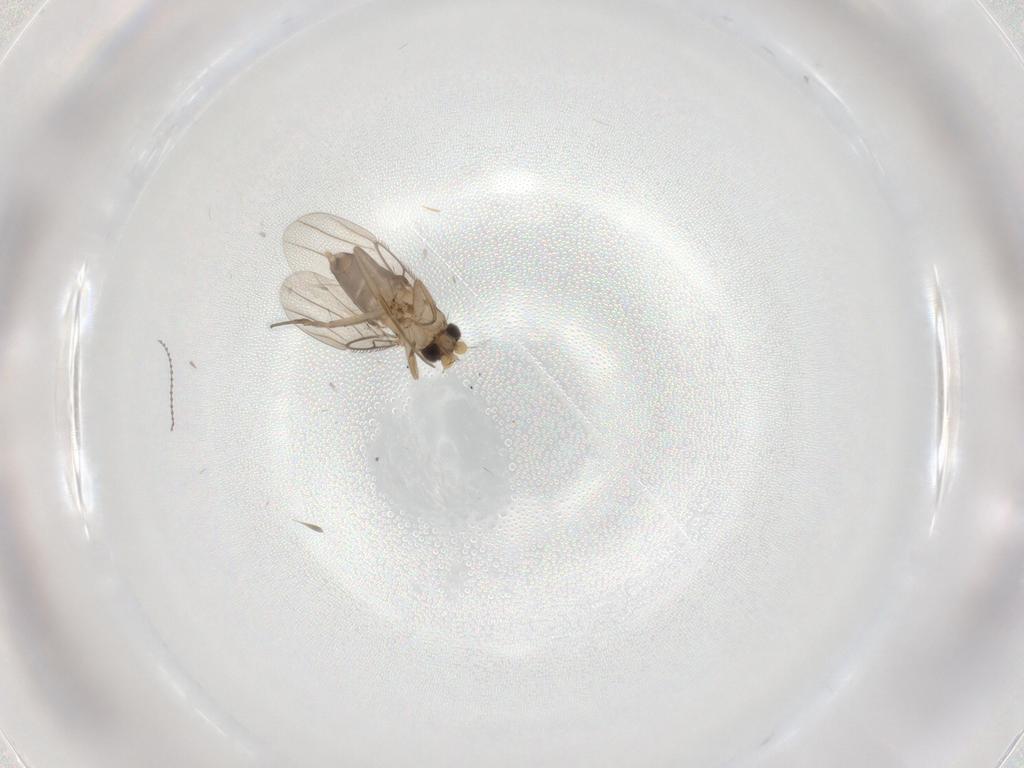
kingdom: Animalia
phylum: Arthropoda
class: Insecta
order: Diptera
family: Phoridae
